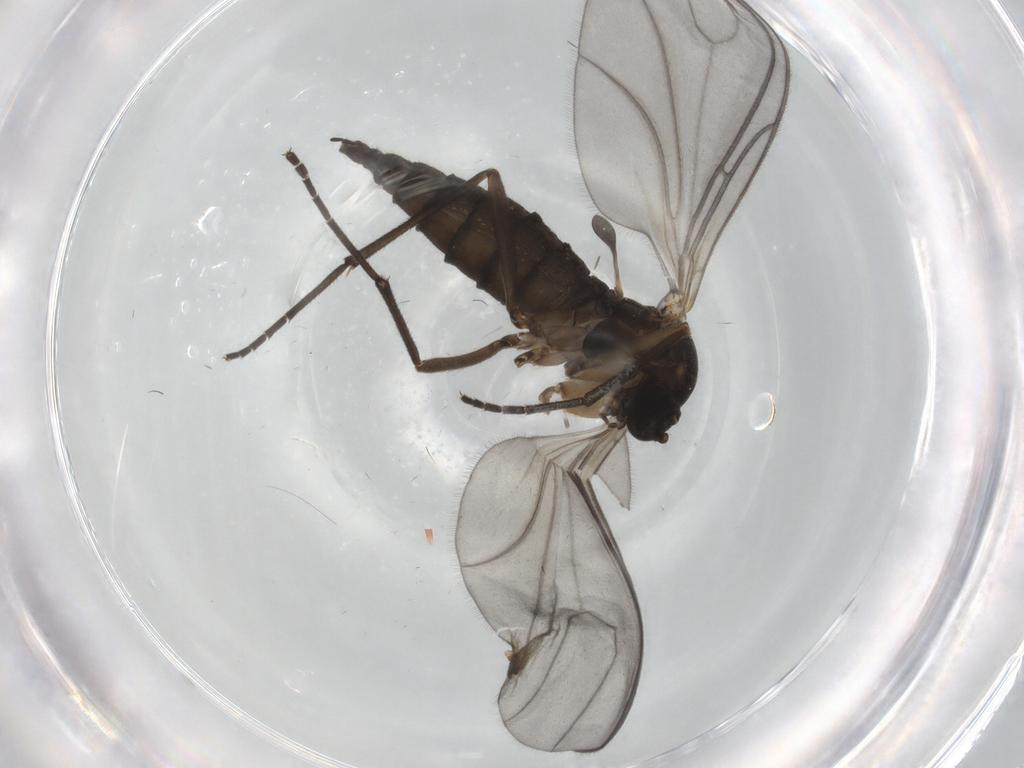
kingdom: Animalia
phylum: Arthropoda
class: Insecta
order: Diptera
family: Sciaridae
